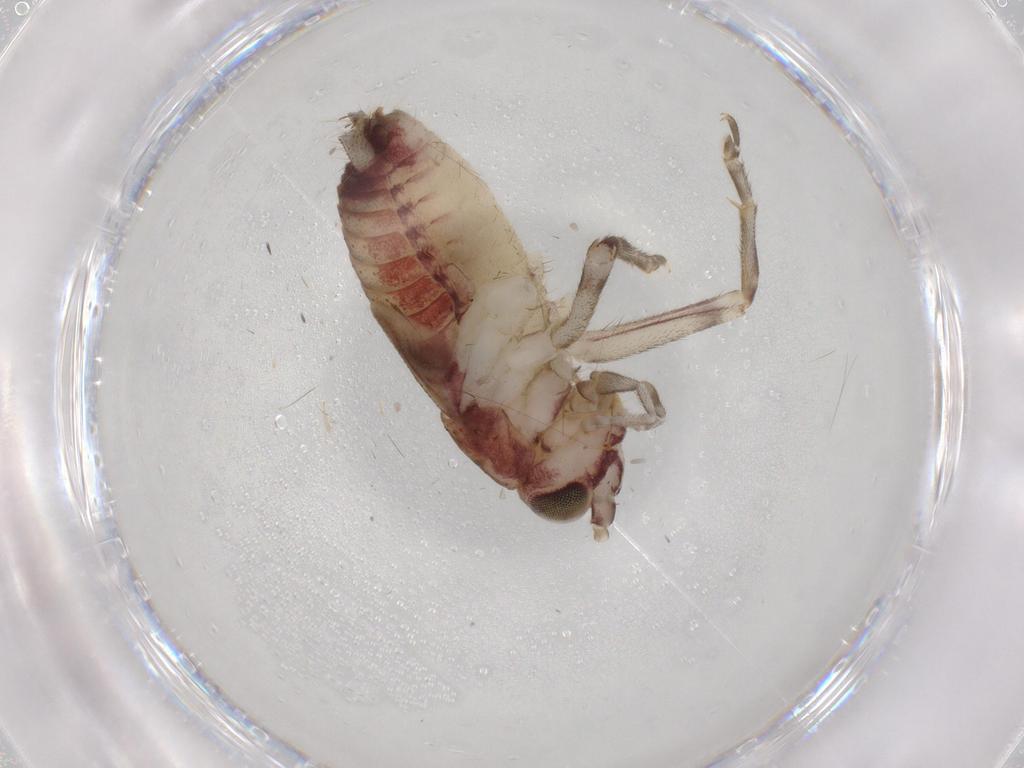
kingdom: Animalia
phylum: Arthropoda
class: Insecta
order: Orthoptera
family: Trigonidiidae
